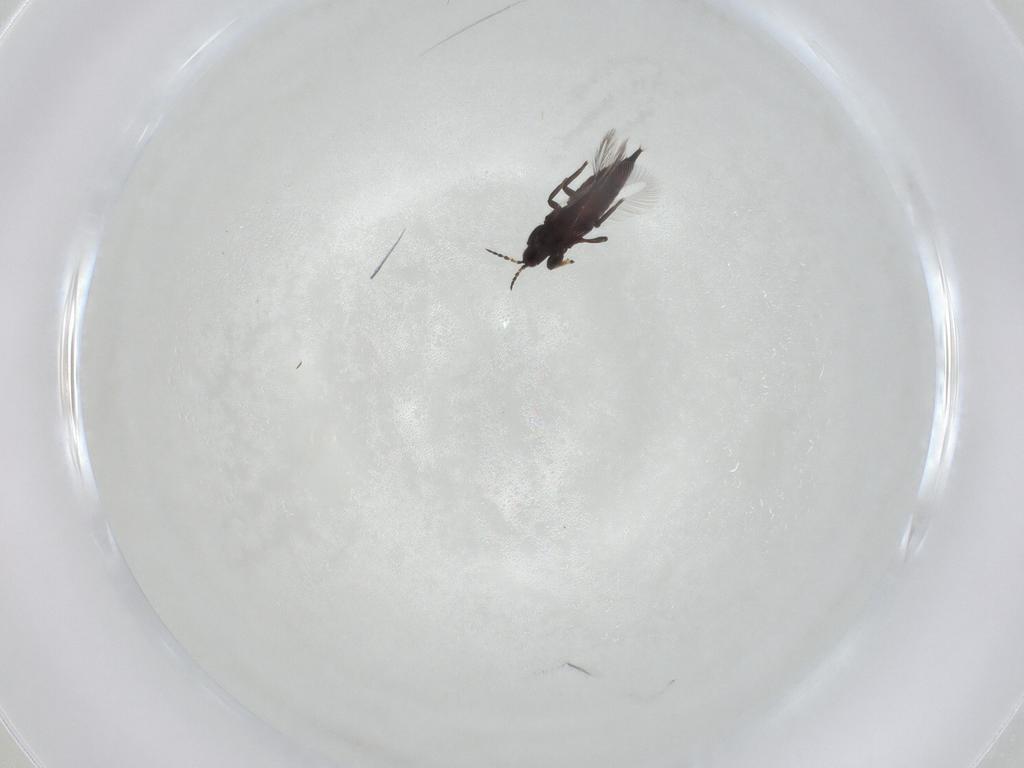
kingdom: Animalia
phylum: Arthropoda
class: Insecta
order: Thysanoptera
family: Phlaeothripidae
